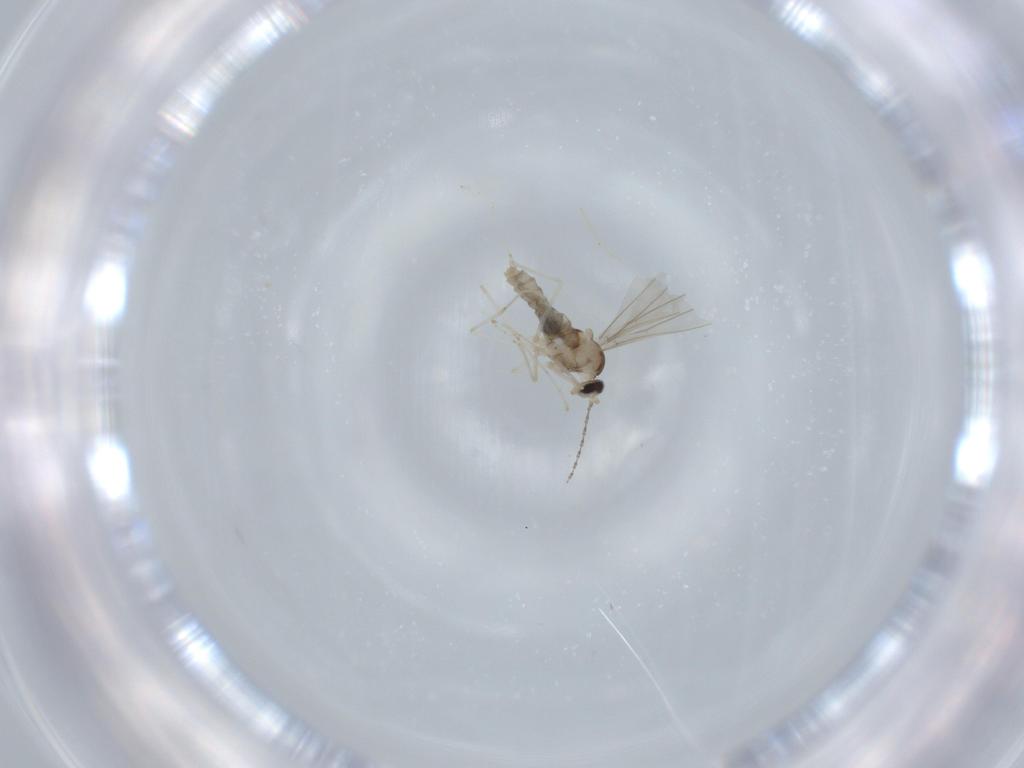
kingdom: Animalia
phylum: Arthropoda
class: Insecta
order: Diptera
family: Cecidomyiidae
